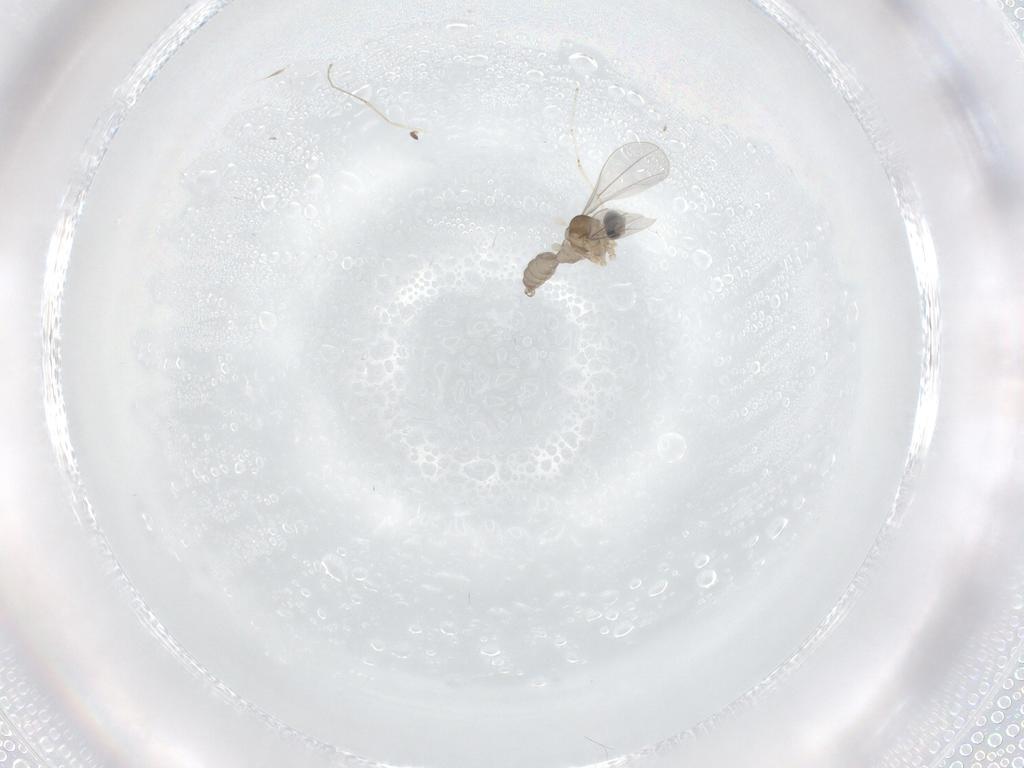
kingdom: Animalia
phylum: Arthropoda
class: Insecta
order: Diptera
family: Cecidomyiidae
